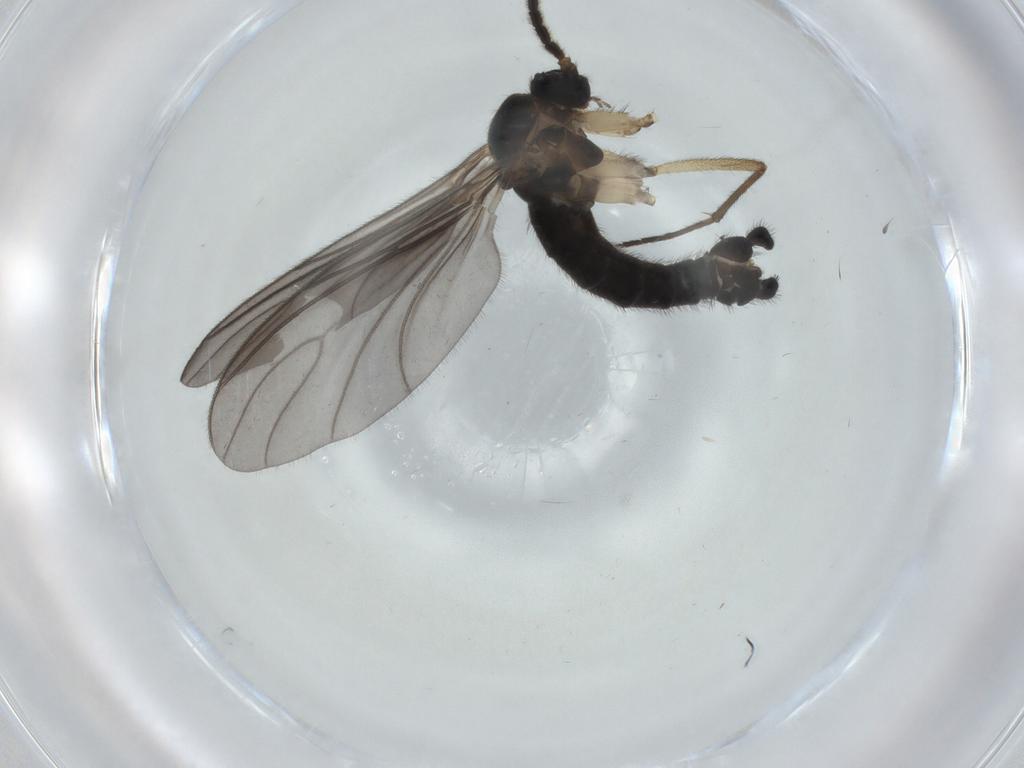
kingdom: Animalia
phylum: Arthropoda
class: Insecta
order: Diptera
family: Sciaridae
